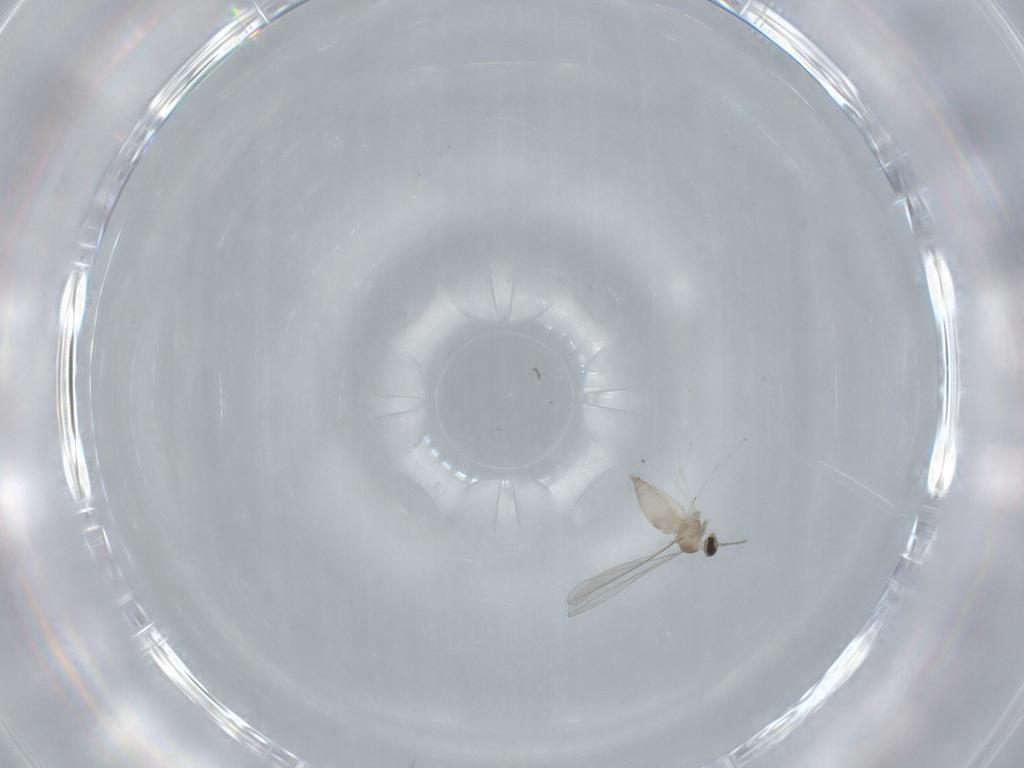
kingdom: Animalia
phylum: Arthropoda
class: Insecta
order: Diptera
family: Cecidomyiidae
